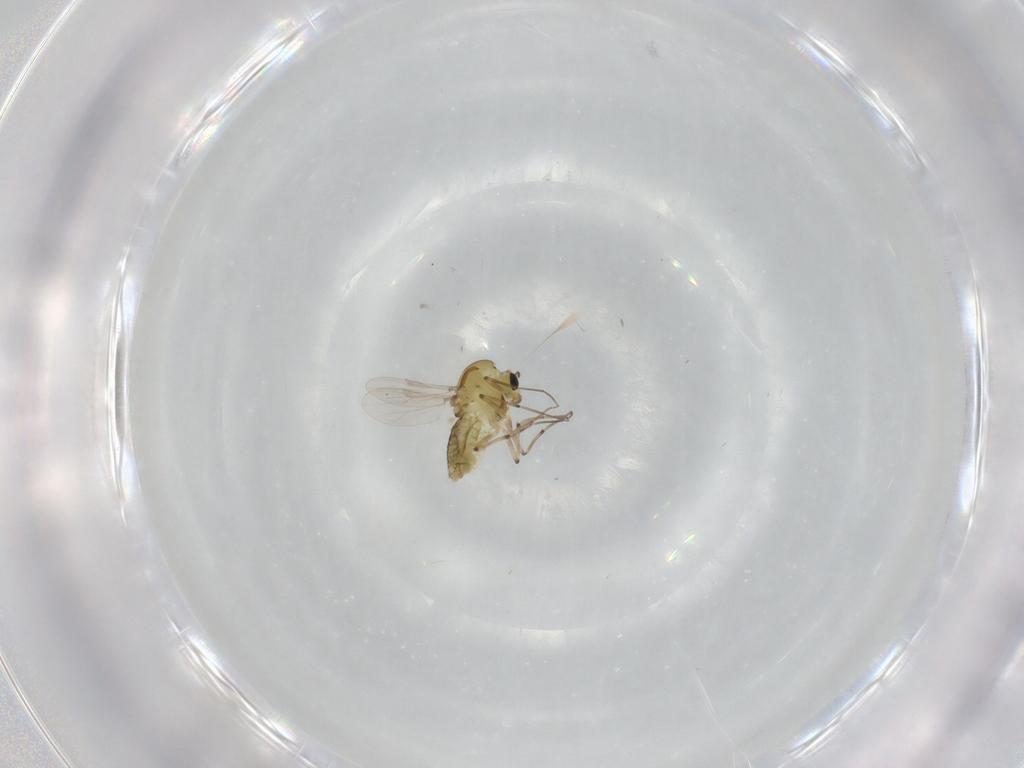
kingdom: Animalia
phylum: Arthropoda
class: Insecta
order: Diptera
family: Chironomidae
